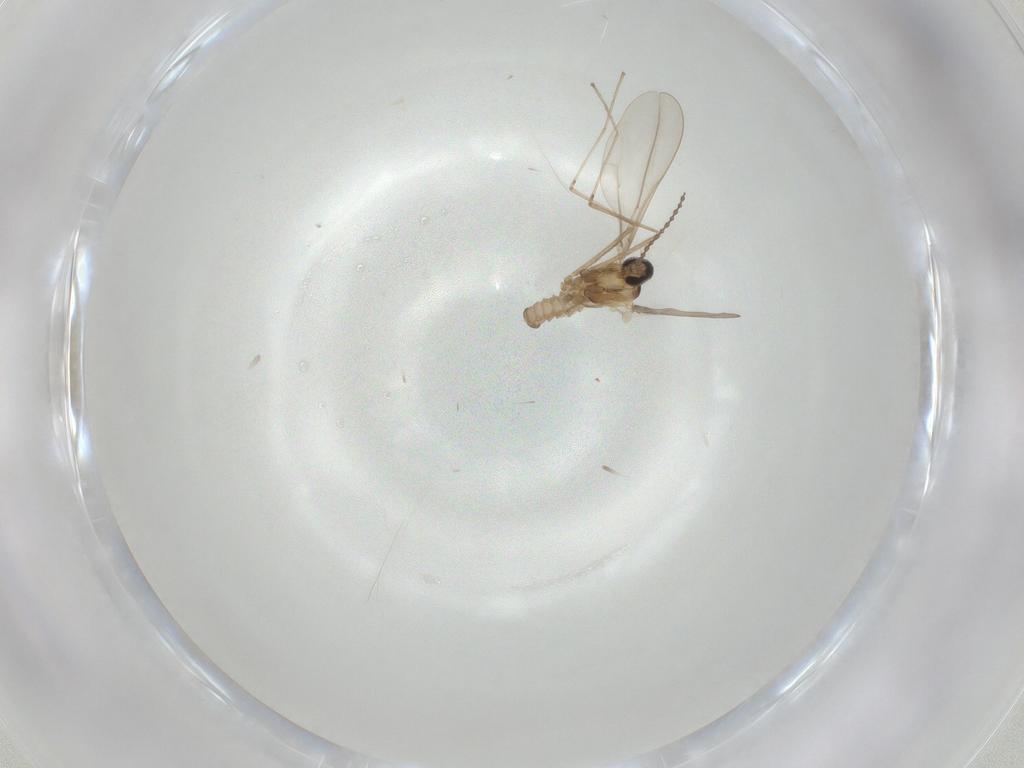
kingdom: Animalia
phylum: Arthropoda
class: Insecta
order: Diptera
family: Cecidomyiidae
